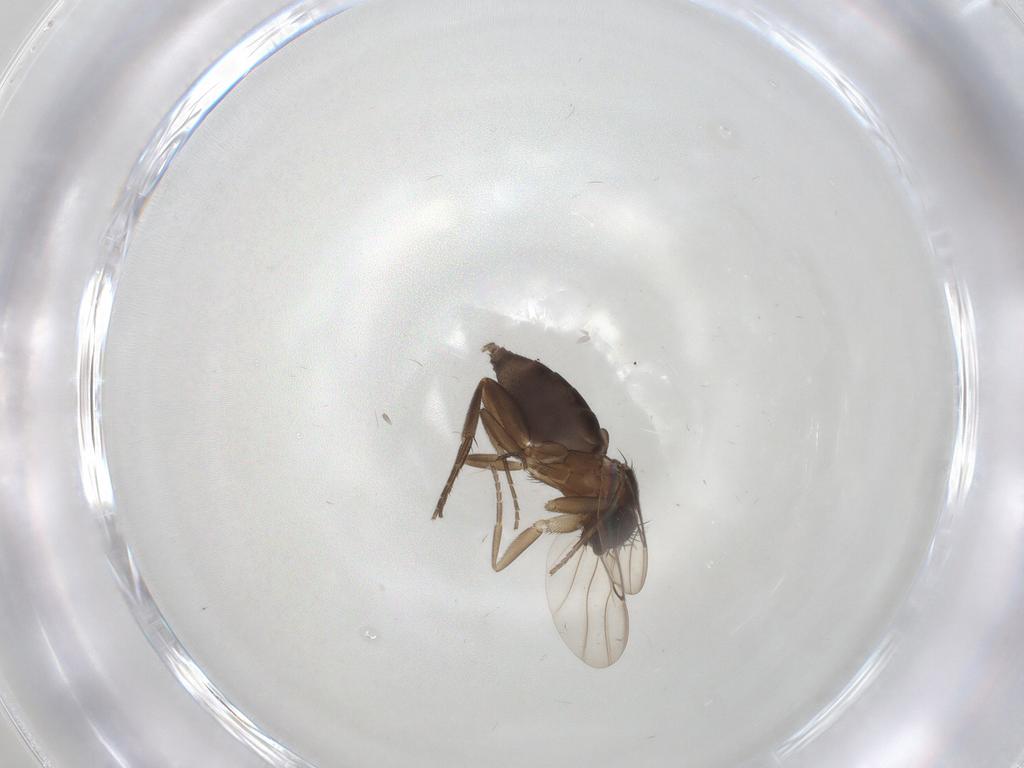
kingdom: Animalia
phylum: Arthropoda
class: Insecta
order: Diptera
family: Phoridae
